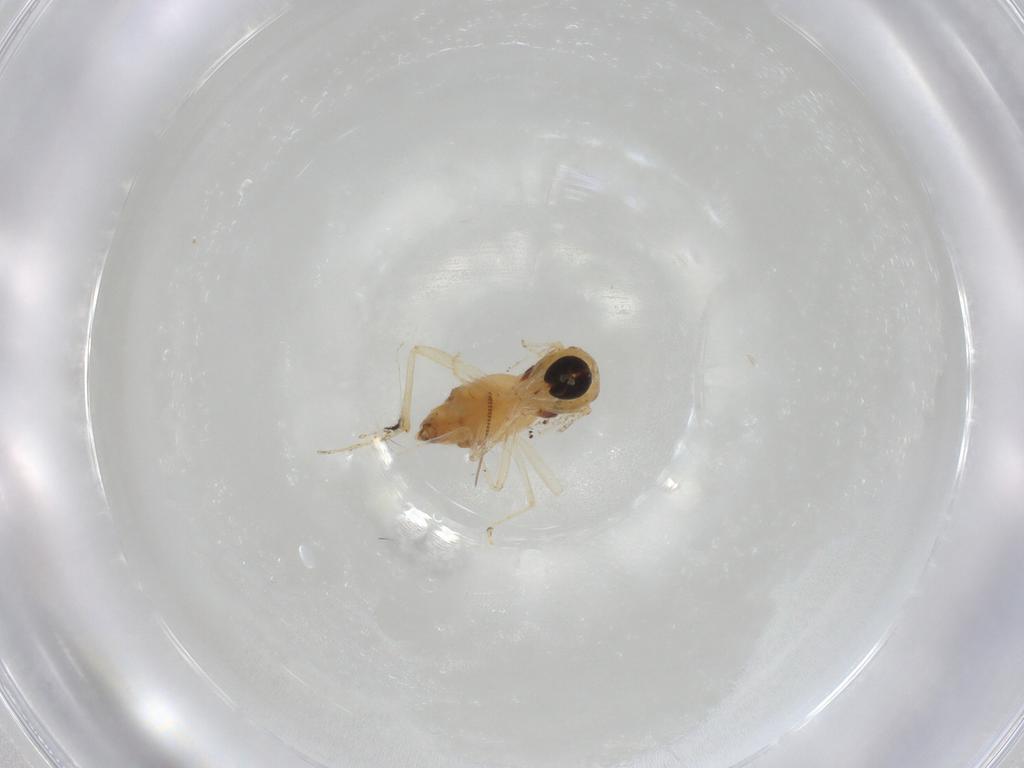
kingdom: Animalia
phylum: Arthropoda
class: Insecta
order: Diptera
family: Hybotidae
